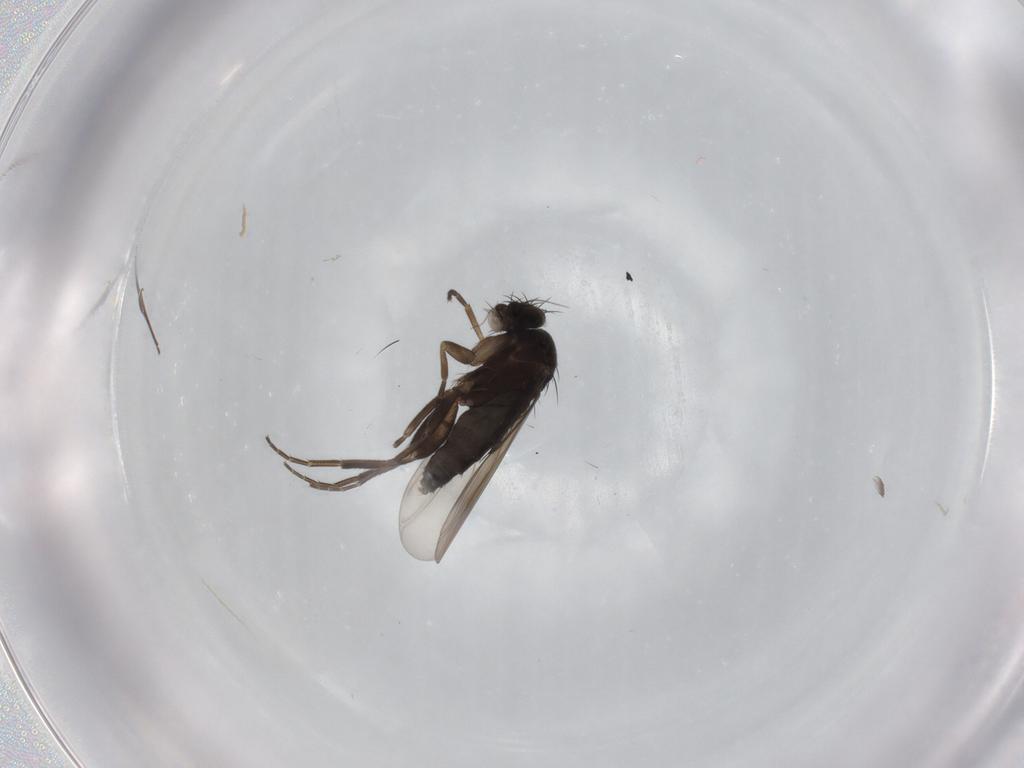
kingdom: Animalia
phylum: Arthropoda
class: Insecta
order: Diptera
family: Phoridae
